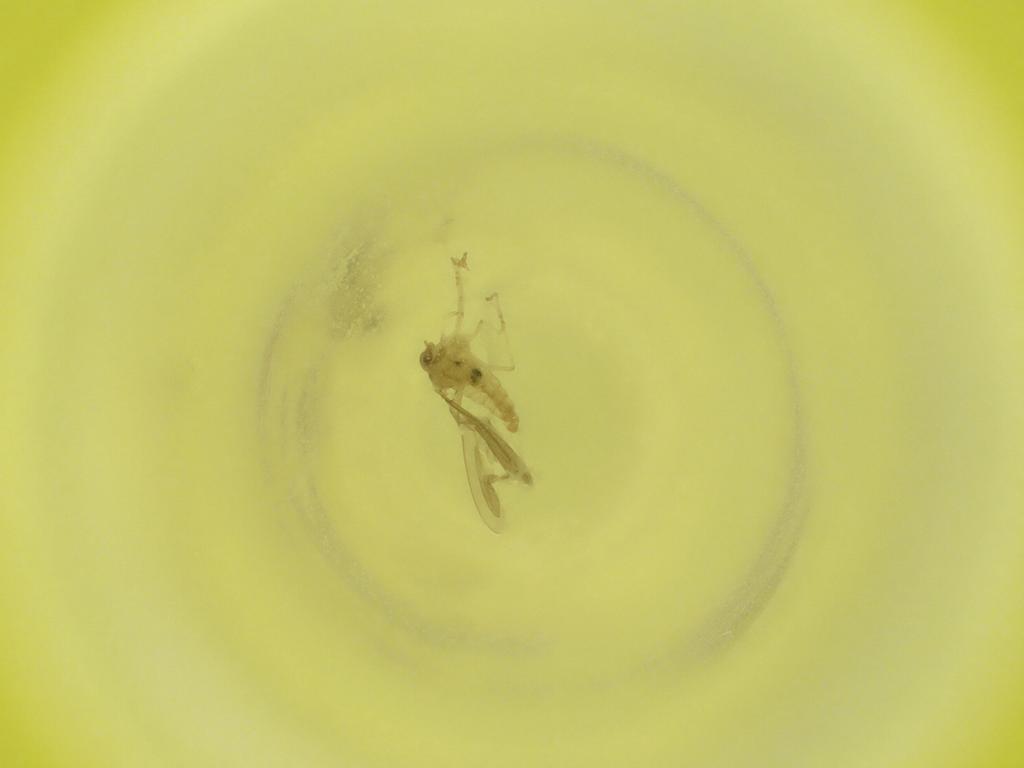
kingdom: Animalia
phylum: Arthropoda
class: Insecta
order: Diptera
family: Cecidomyiidae
